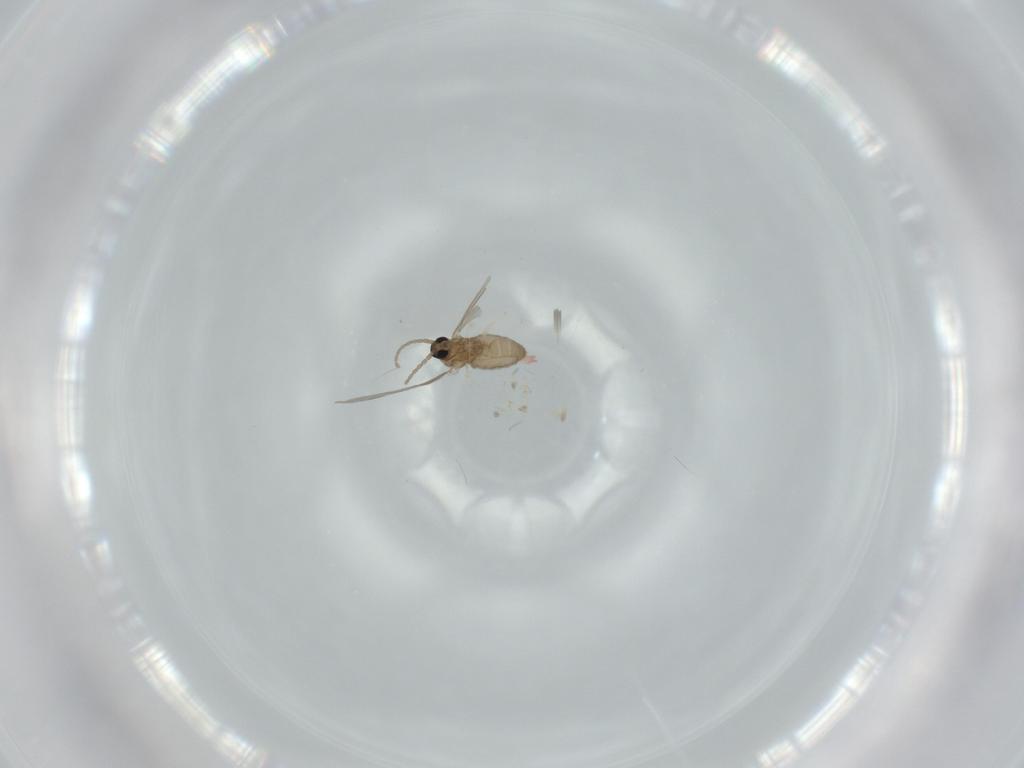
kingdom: Animalia
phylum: Arthropoda
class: Insecta
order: Diptera
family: Cecidomyiidae
